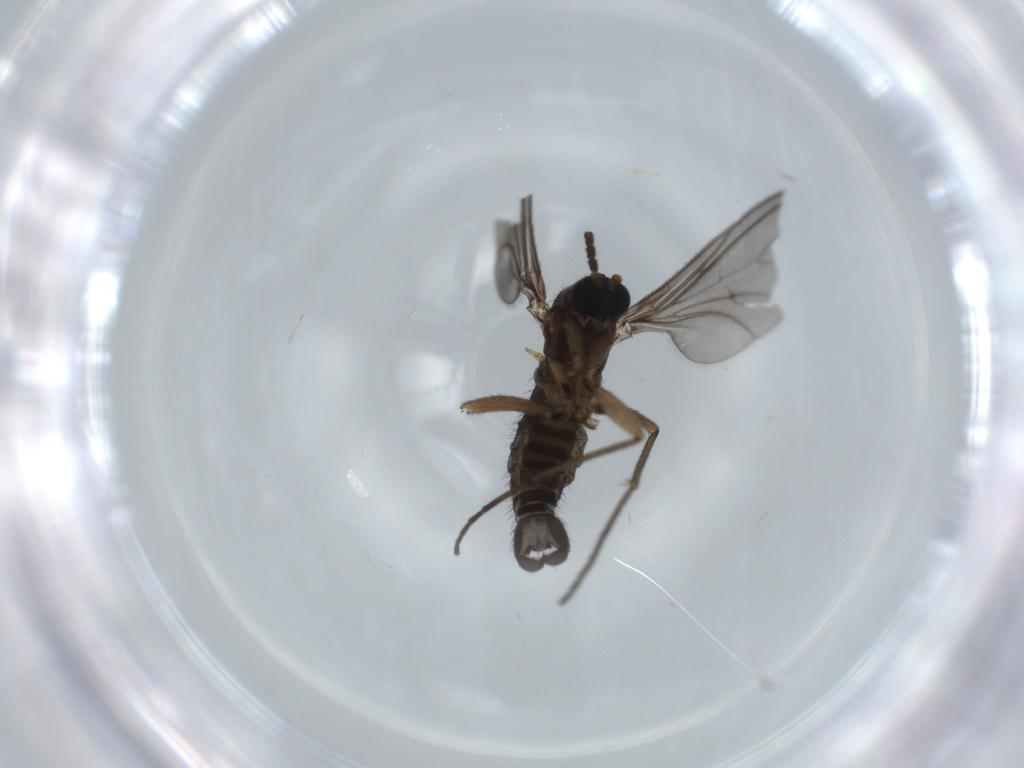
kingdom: Animalia
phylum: Arthropoda
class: Insecta
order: Diptera
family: Sciaridae
